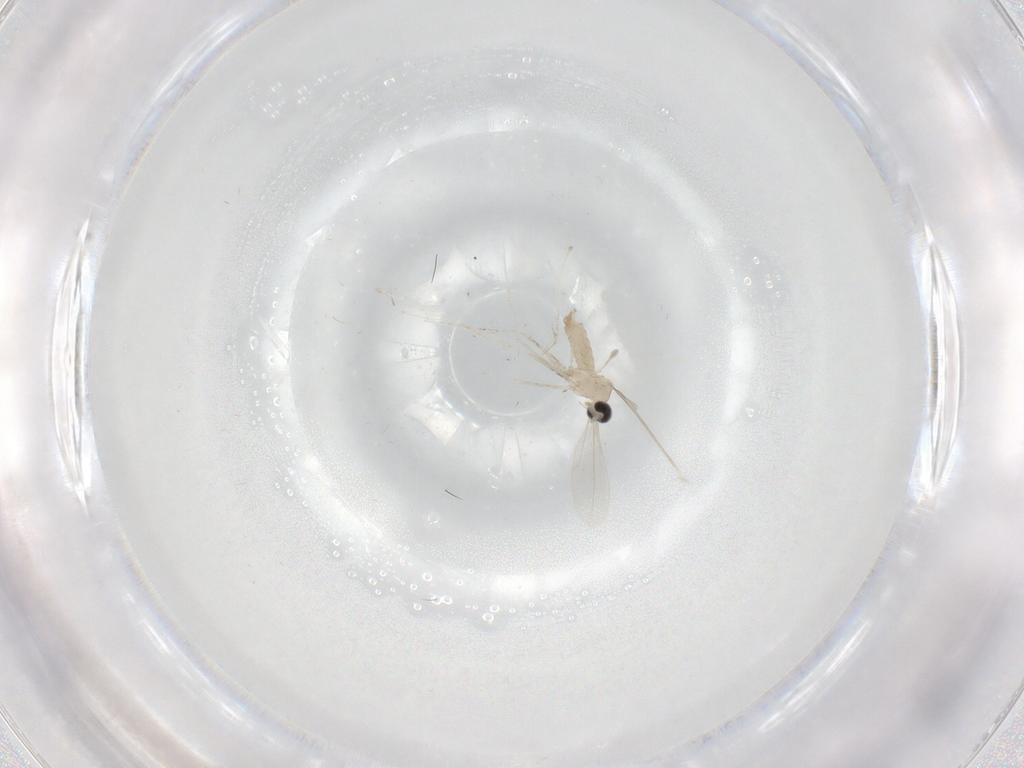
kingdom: Animalia
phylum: Arthropoda
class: Insecta
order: Diptera
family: Cecidomyiidae
